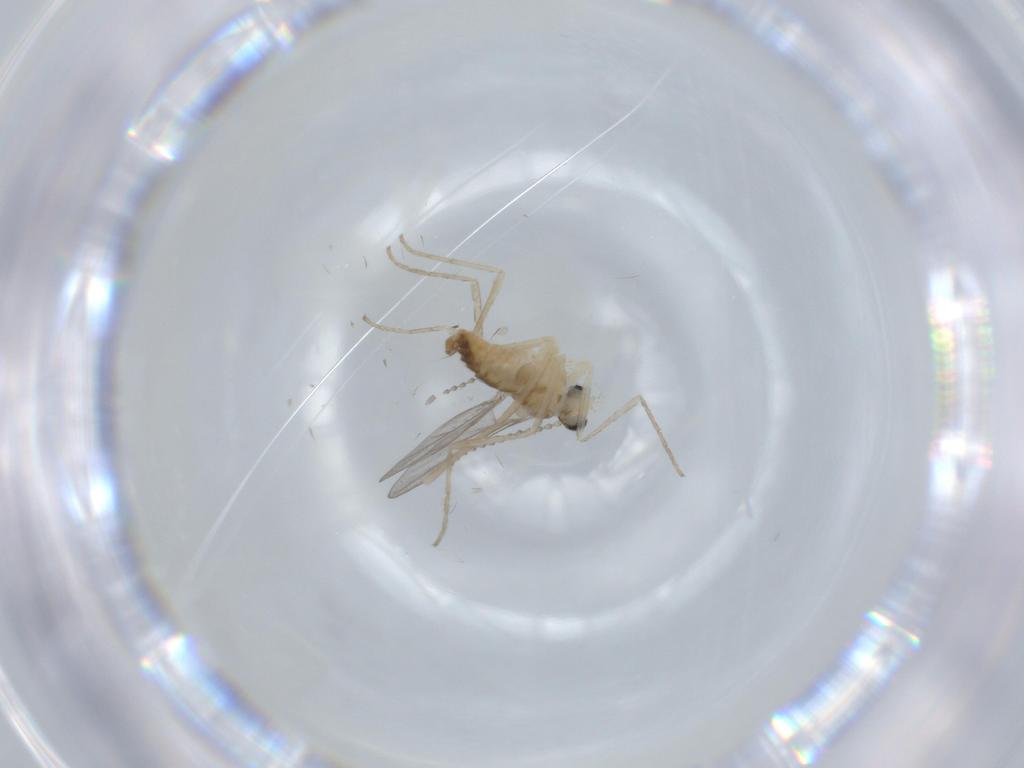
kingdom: Animalia
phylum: Arthropoda
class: Insecta
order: Diptera
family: Cecidomyiidae
